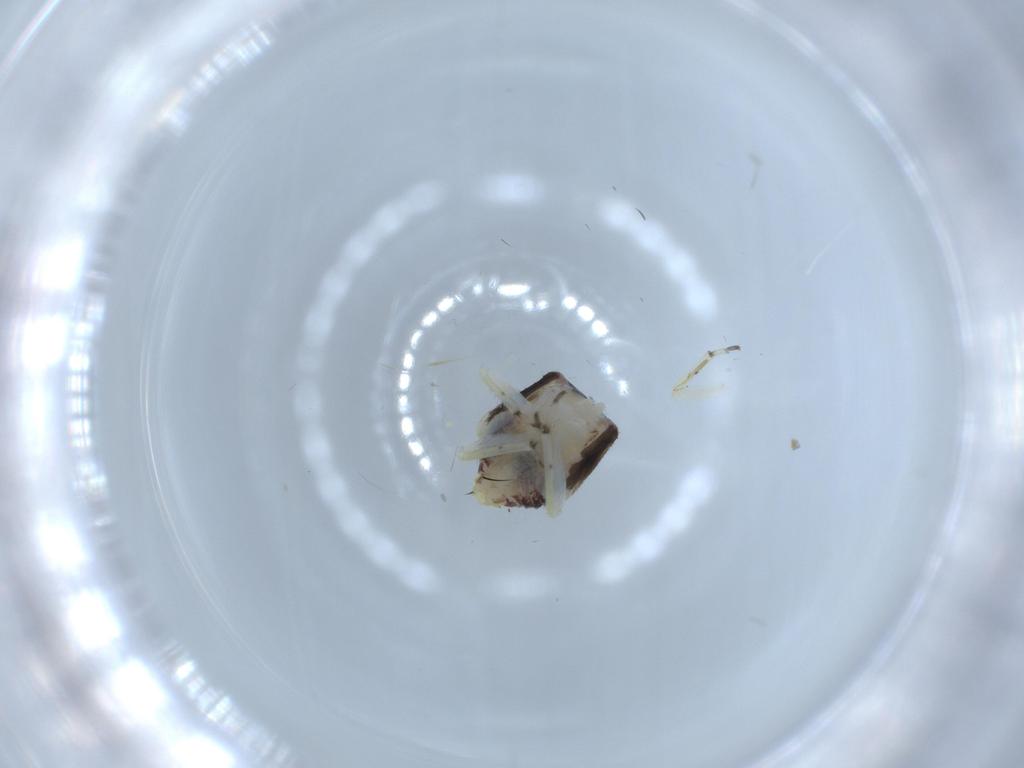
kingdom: Animalia
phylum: Arthropoda
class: Insecta
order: Psocodea
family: Psocidae
